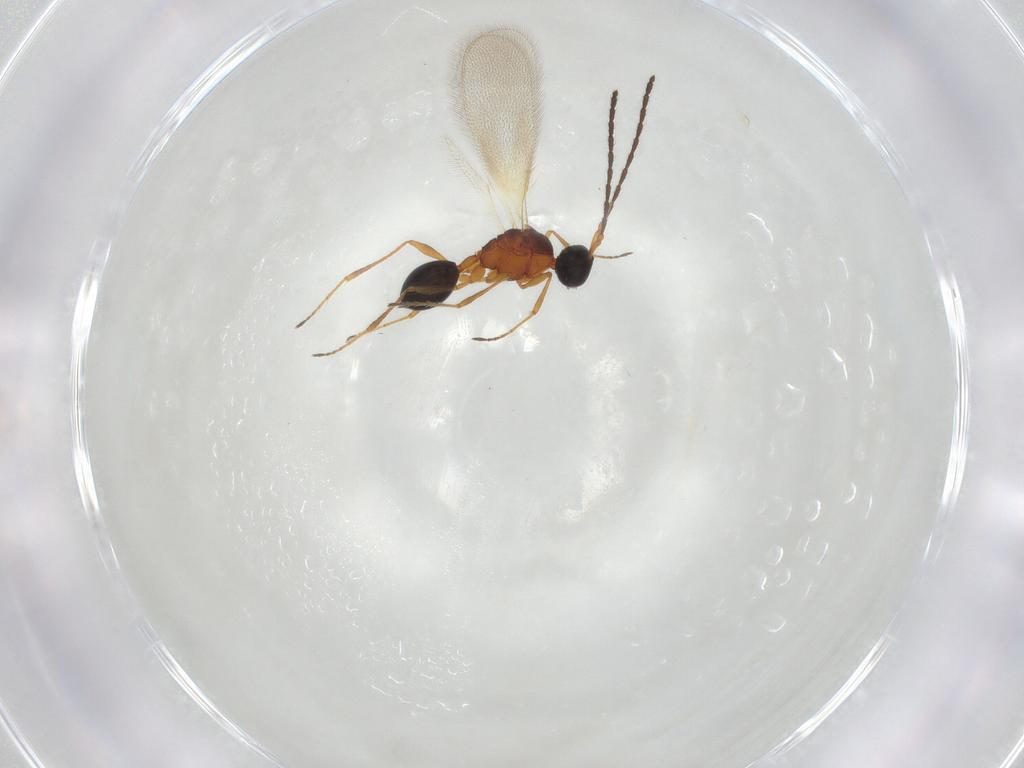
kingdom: Animalia
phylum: Arthropoda
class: Insecta
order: Hymenoptera
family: Diapriidae
